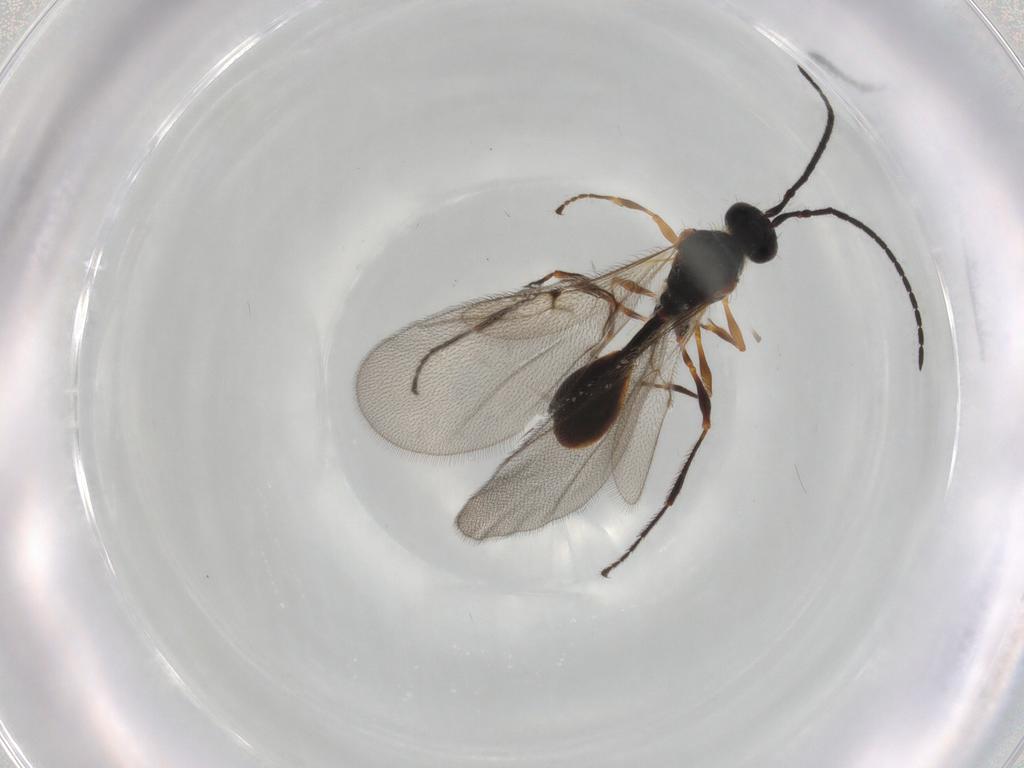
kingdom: Animalia
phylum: Arthropoda
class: Insecta
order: Hymenoptera
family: Diapriidae
